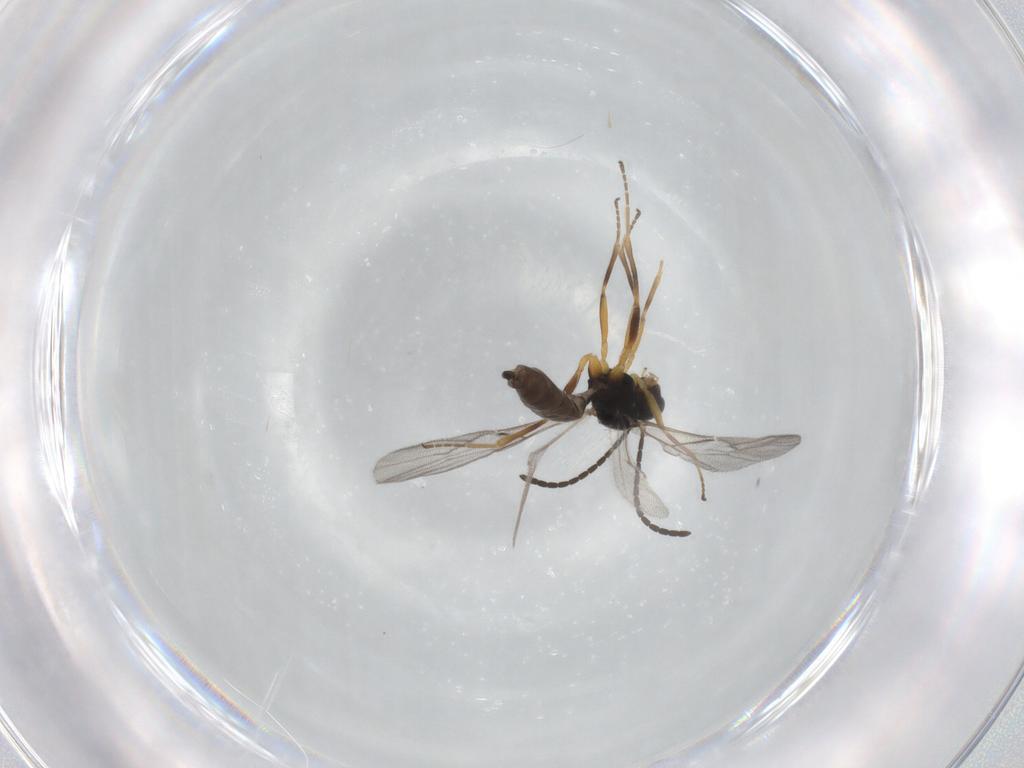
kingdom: Animalia
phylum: Arthropoda
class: Insecta
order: Hymenoptera
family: Braconidae
